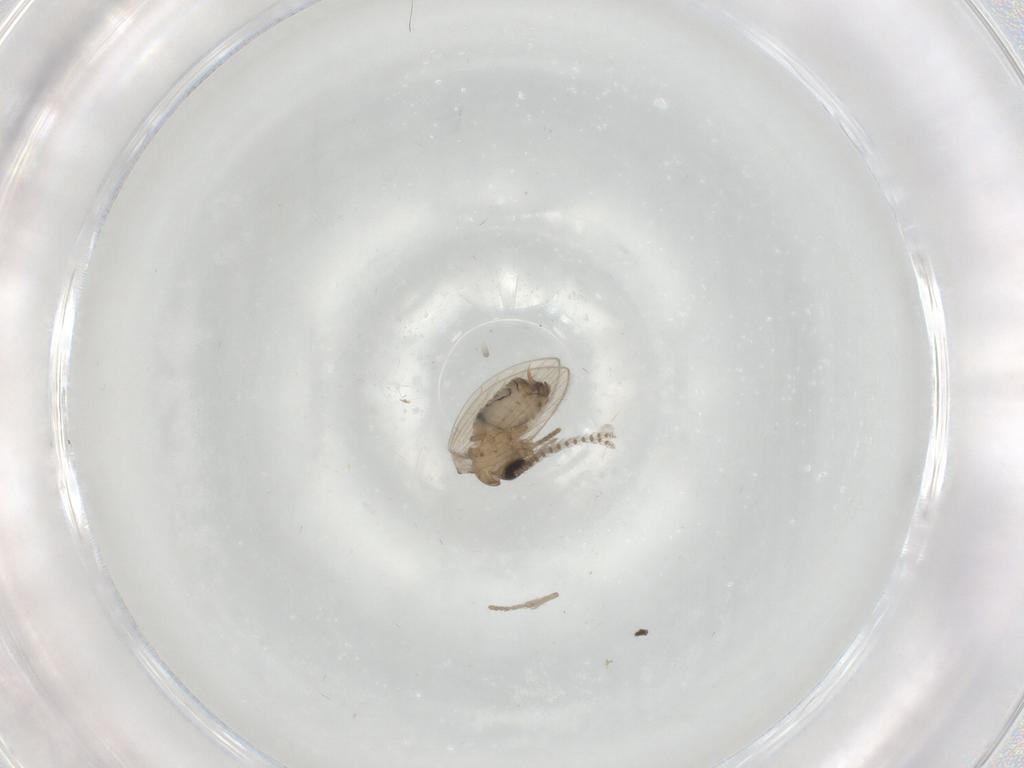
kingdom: Animalia
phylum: Arthropoda
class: Insecta
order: Diptera
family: Psychodidae
